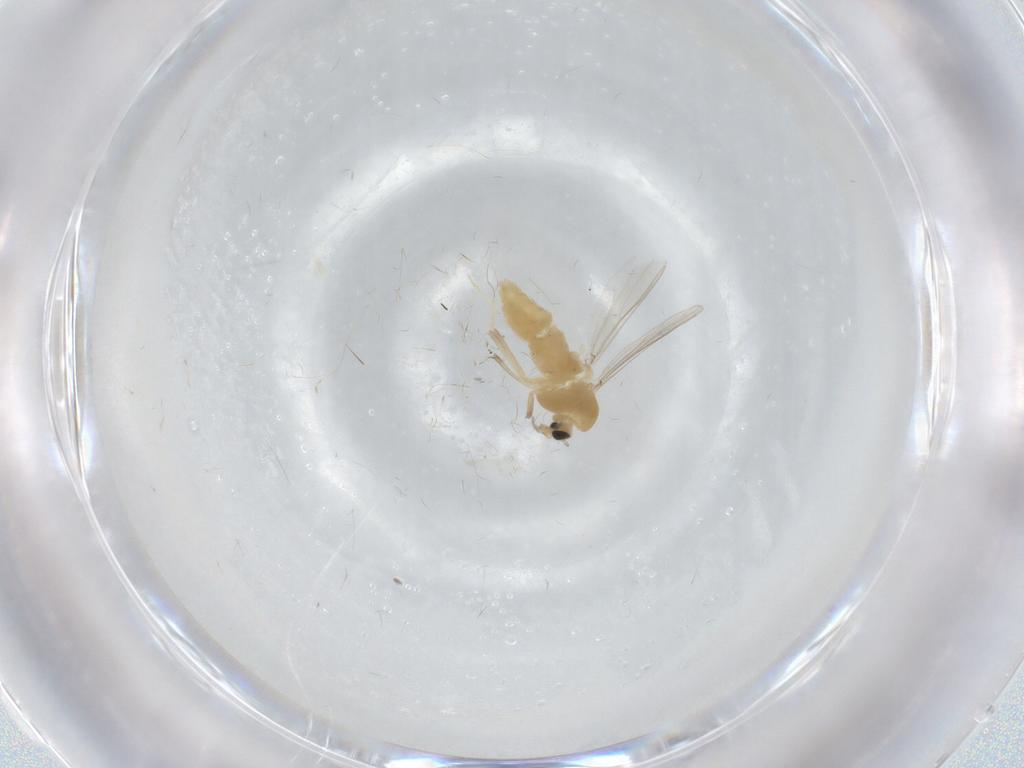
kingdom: Animalia
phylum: Arthropoda
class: Insecta
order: Diptera
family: Chironomidae
